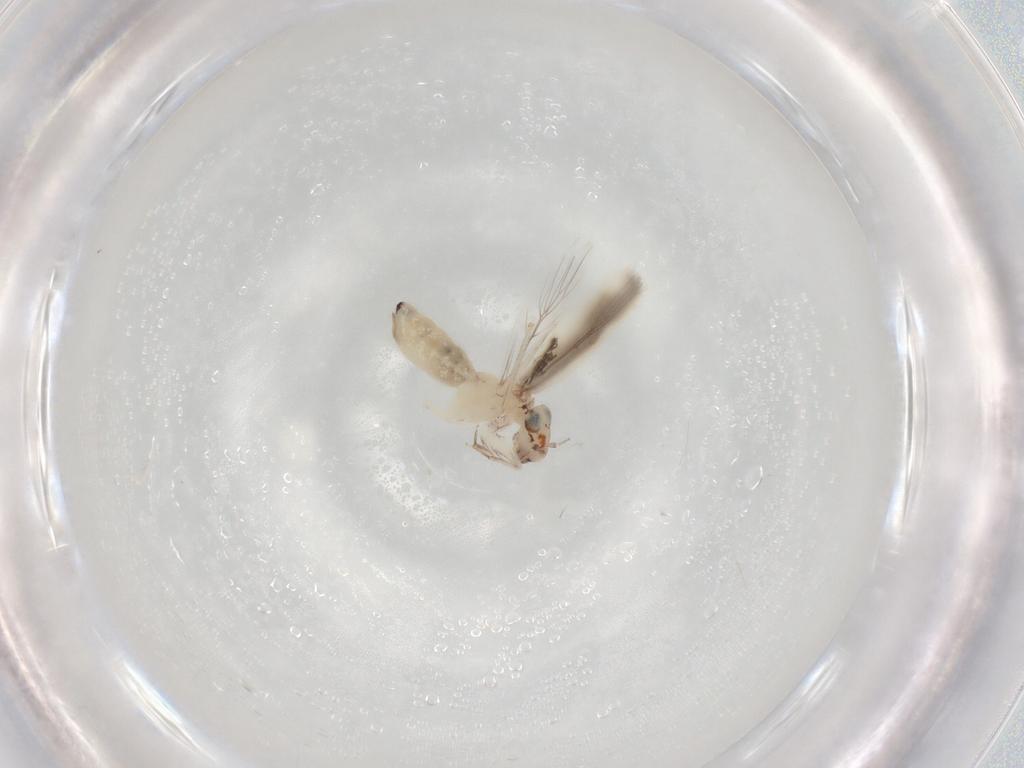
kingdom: Animalia
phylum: Arthropoda
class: Insecta
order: Psocodea
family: Lepidopsocidae
